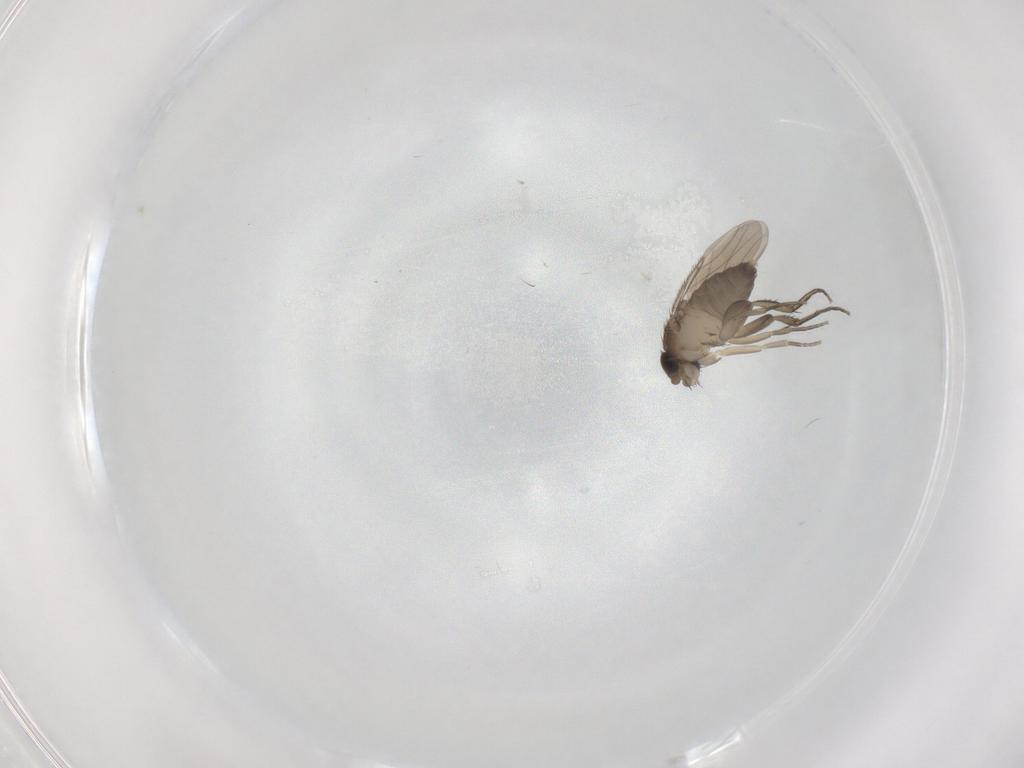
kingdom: Animalia
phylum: Arthropoda
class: Insecta
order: Diptera
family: Phoridae
